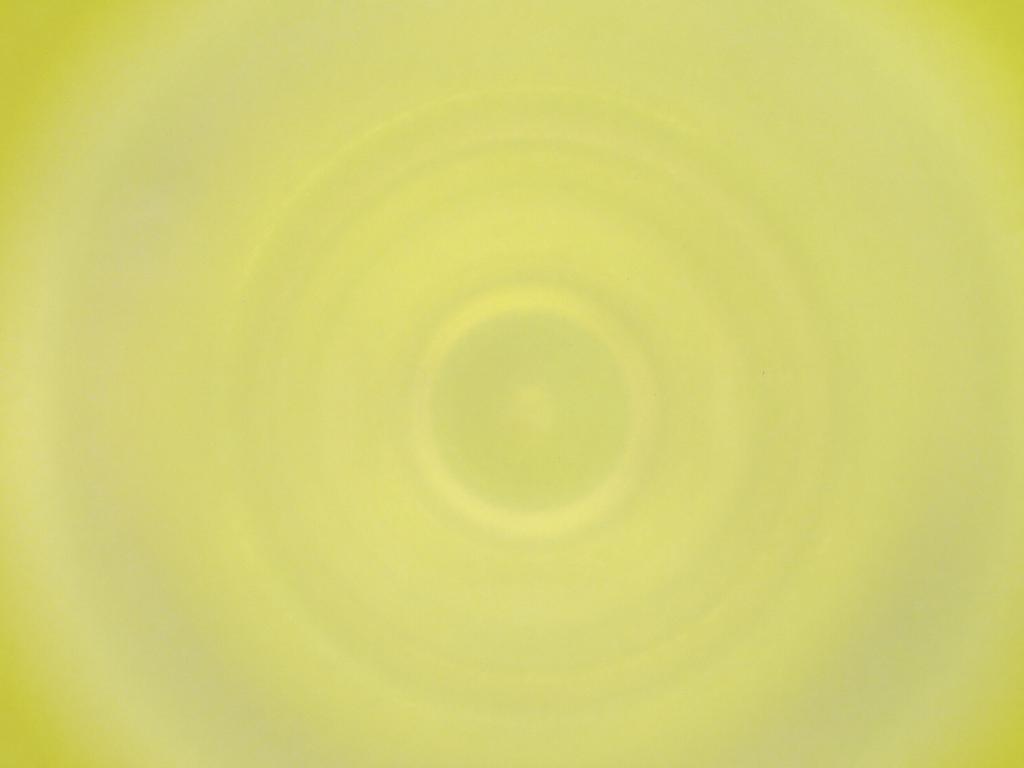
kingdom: Animalia
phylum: Arthropoda
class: Insecta
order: Diptera
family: Cecidomyiidae
